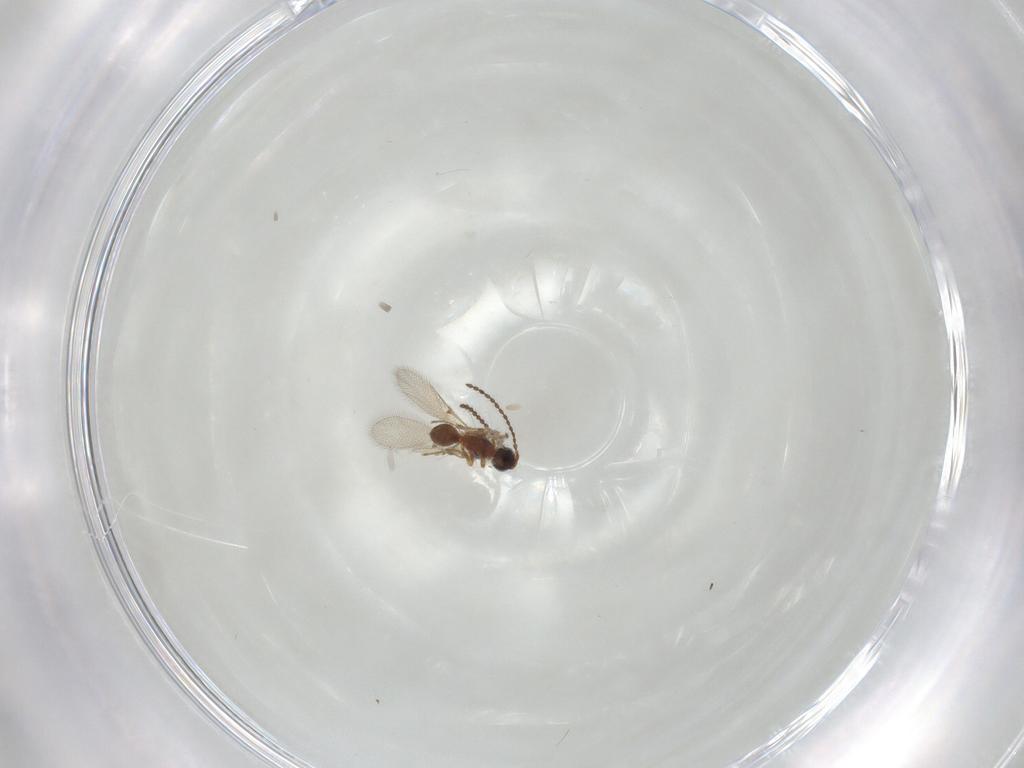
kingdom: Animalia
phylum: Arthropoda
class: Insecta
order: Hymenoptera
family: Diapriidae
